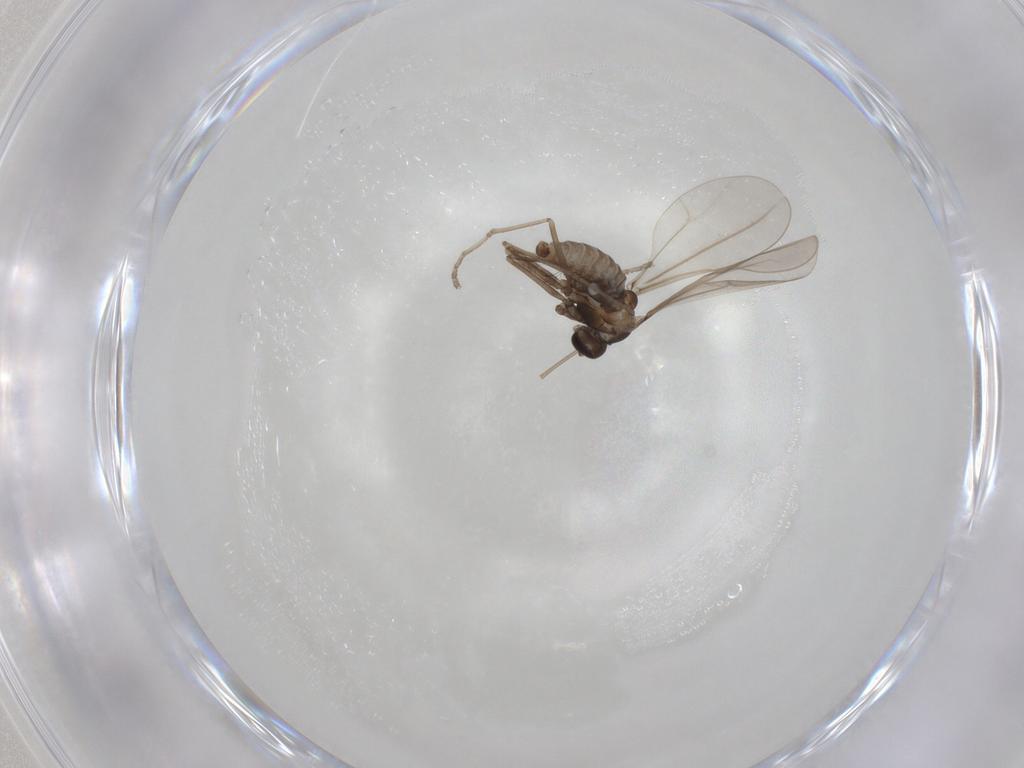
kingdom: Animalia
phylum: Arthropoda
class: Insecta
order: Diptera
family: Cecidomyiidae
